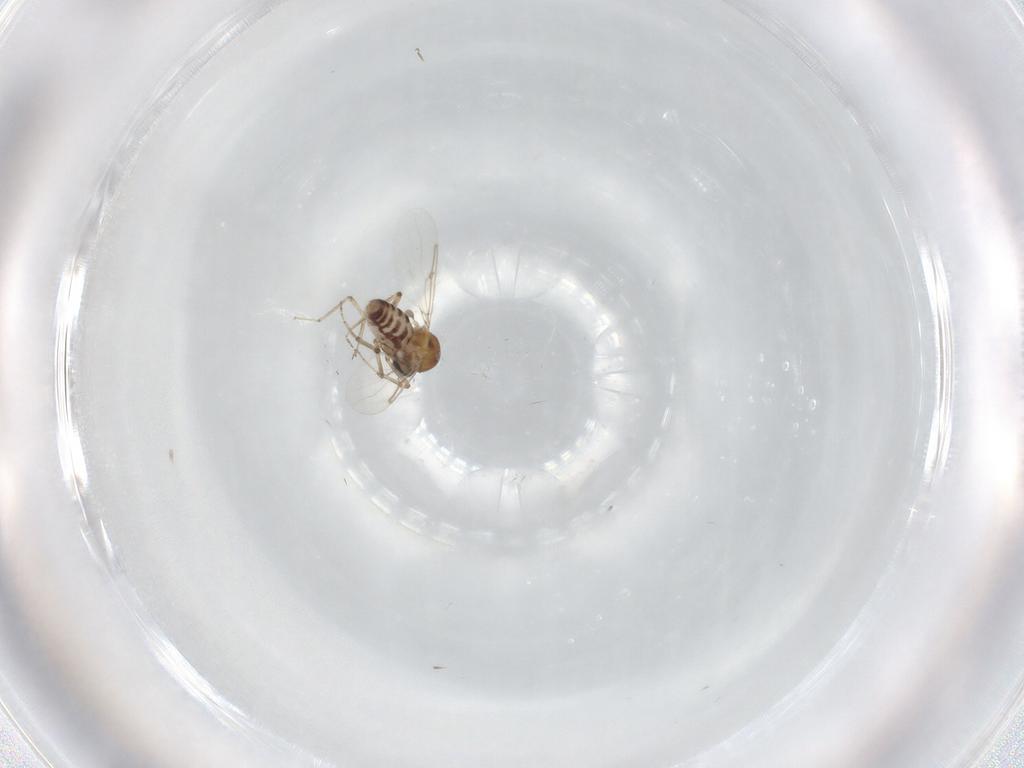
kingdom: Animalia
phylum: Arthropoda
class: Insecta
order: Diptera
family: Ceratopogonidae
